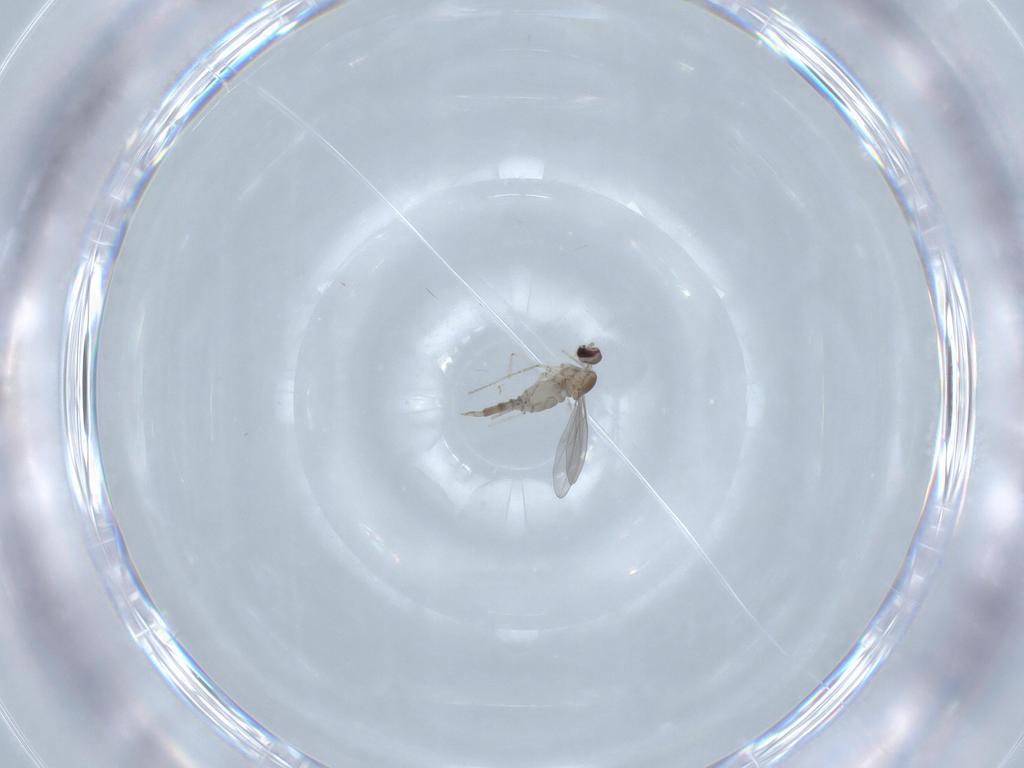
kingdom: Animalia
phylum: Arthropoda
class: Insecta
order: Diptera
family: Cecidomyiidae
